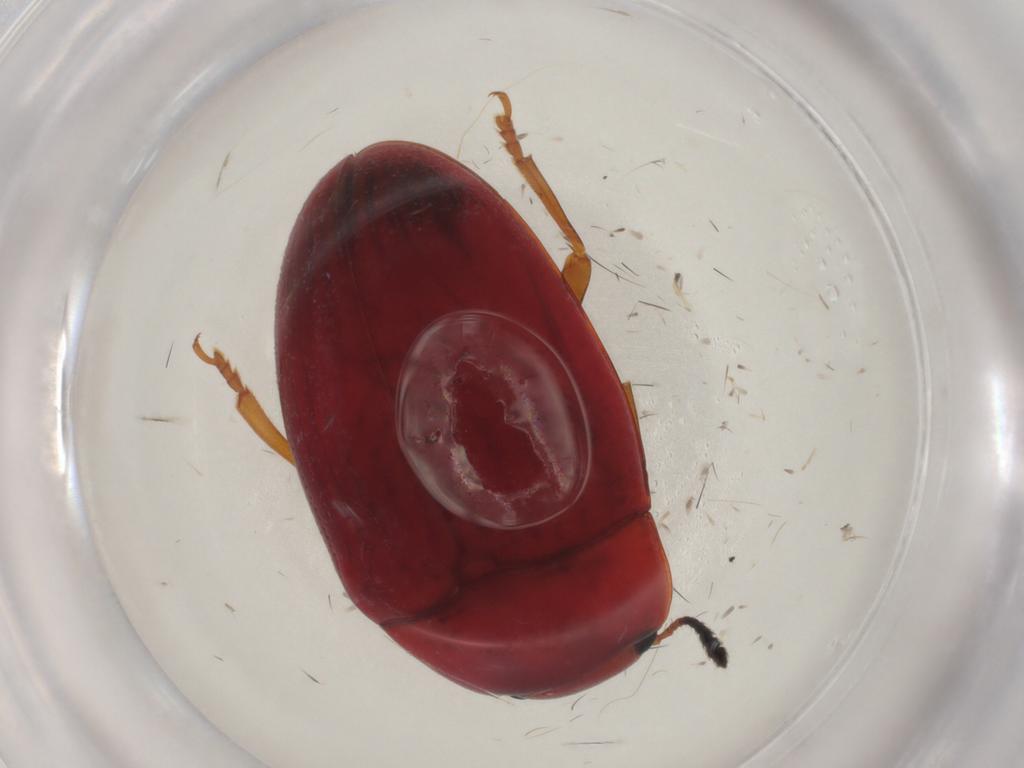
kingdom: Animalia
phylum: Arthropoda
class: Insecta
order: Coleoptera
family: Erotylidae
